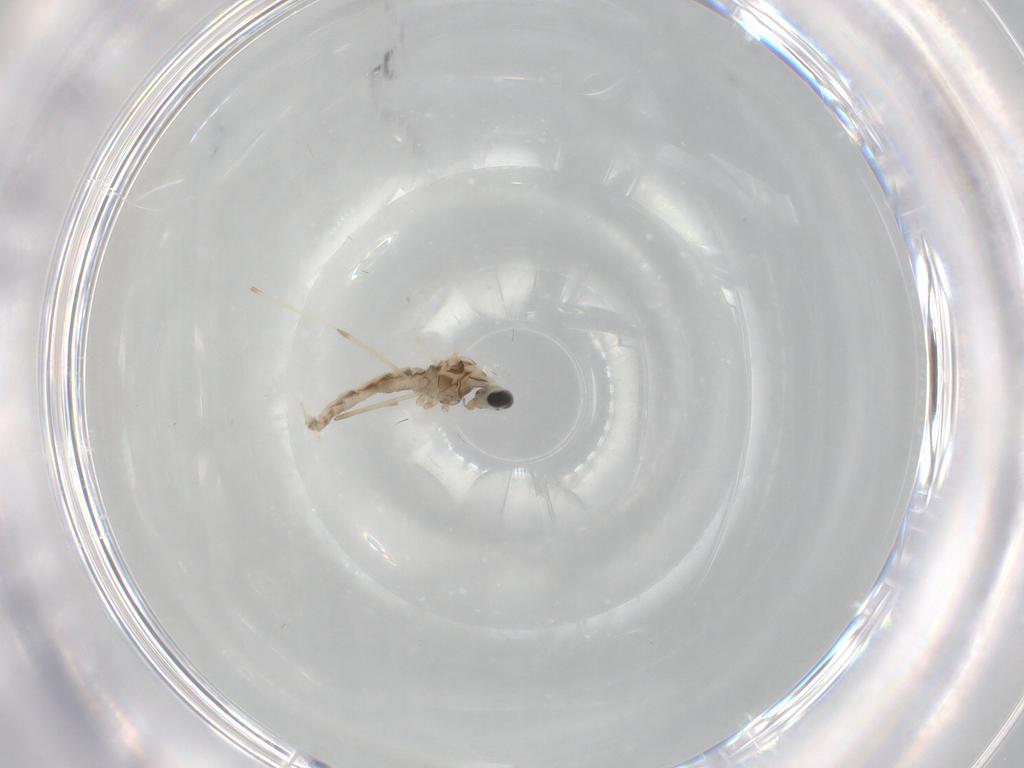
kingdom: Animalia
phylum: Arthropoda
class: Insecta
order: Diptera
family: Cecidomyiidae
